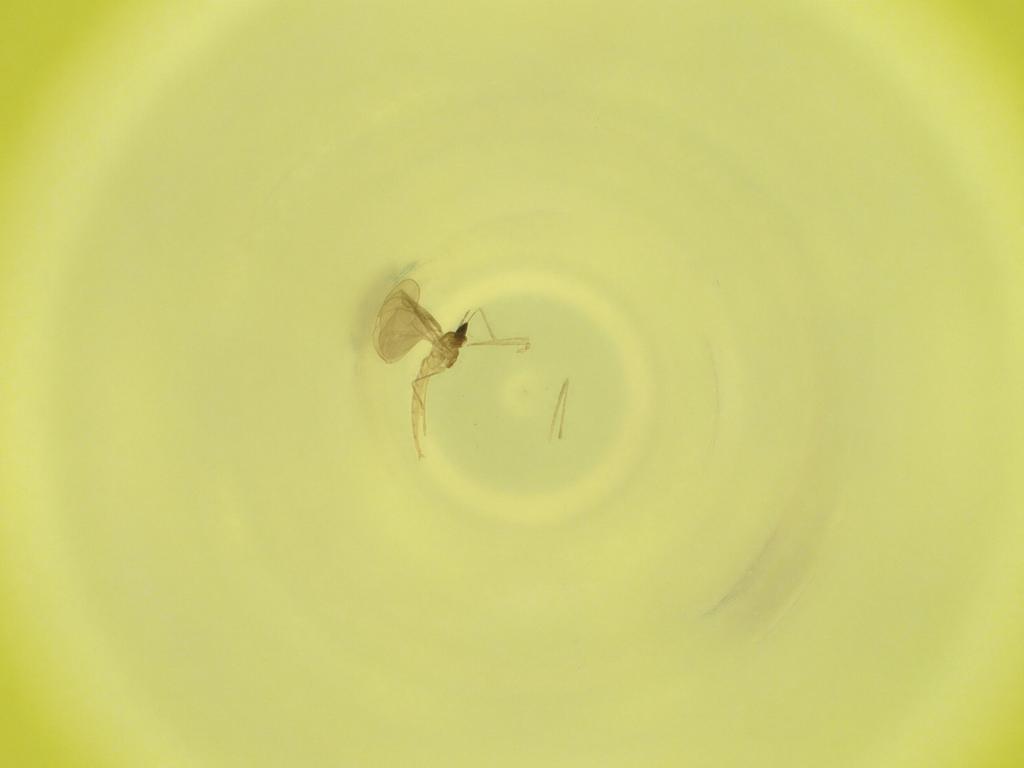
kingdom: Animalia
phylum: Arthropoda
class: Insecta
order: Diptera
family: Cecidomyiidae
